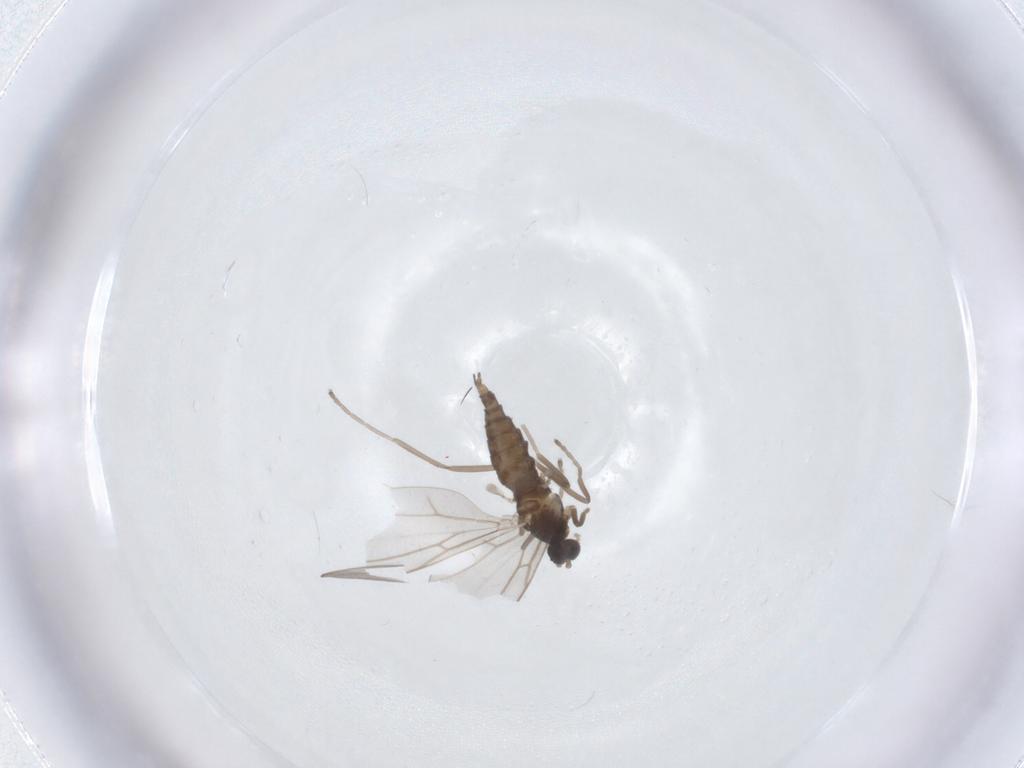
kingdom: Animalia
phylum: Arthropoda
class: Insecta
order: Diptera
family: Cecidomyiidae
